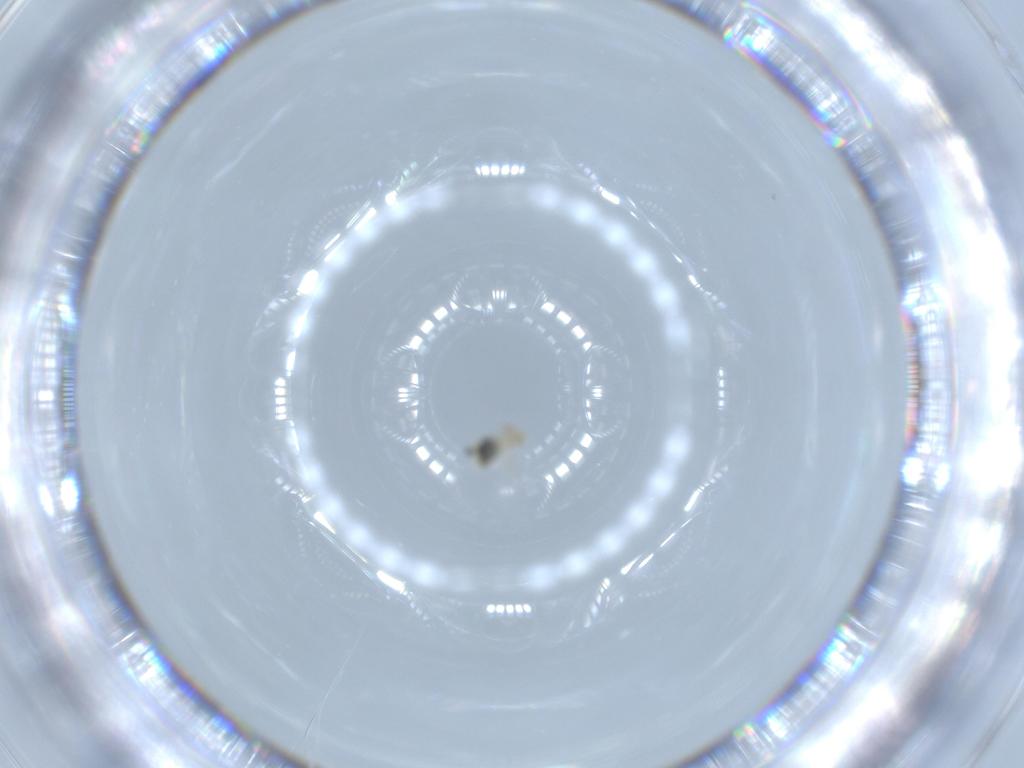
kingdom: Animalia
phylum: Arthropoda
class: Insecta
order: Psocodea
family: Caeciliusidae
